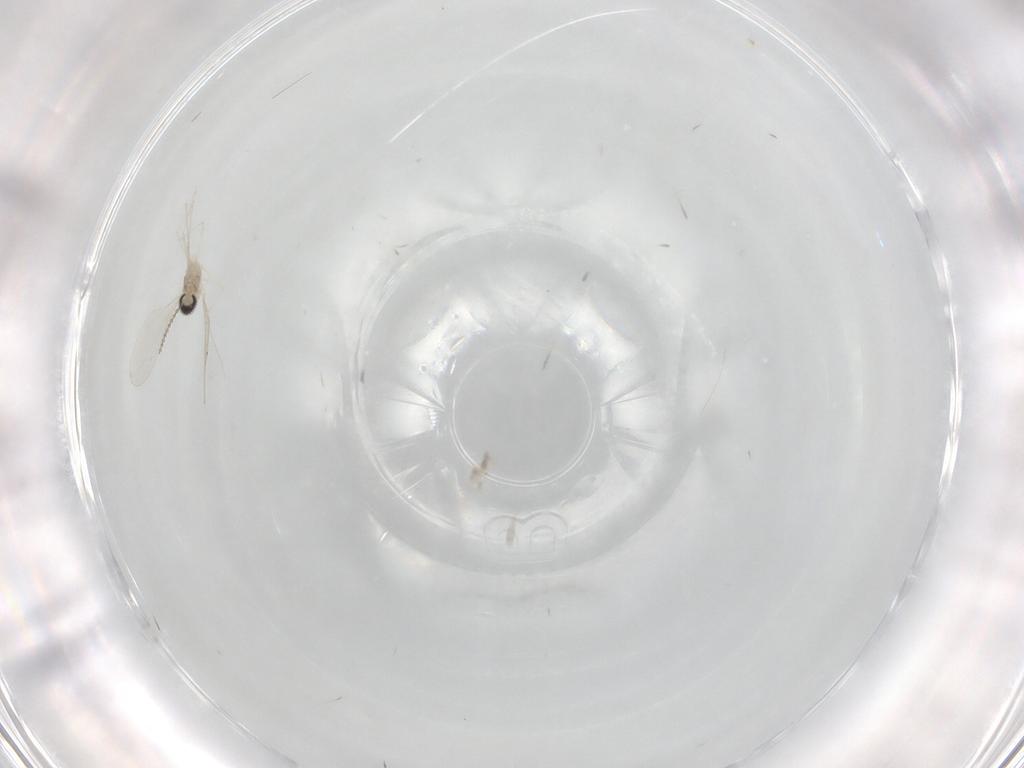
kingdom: Animalia
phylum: Arthropoda
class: Insecta
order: Diptera
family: Cecidomyiidae
